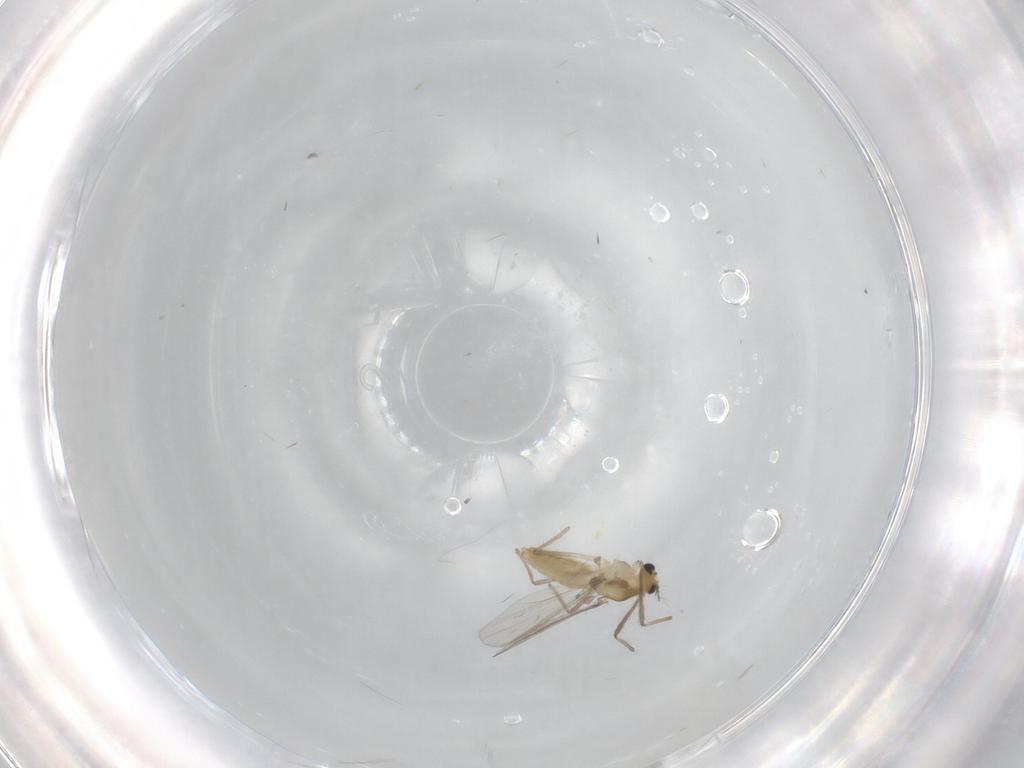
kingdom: Animalia
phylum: Arthropoda
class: Insecta
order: Diptera
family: Chironomidae
